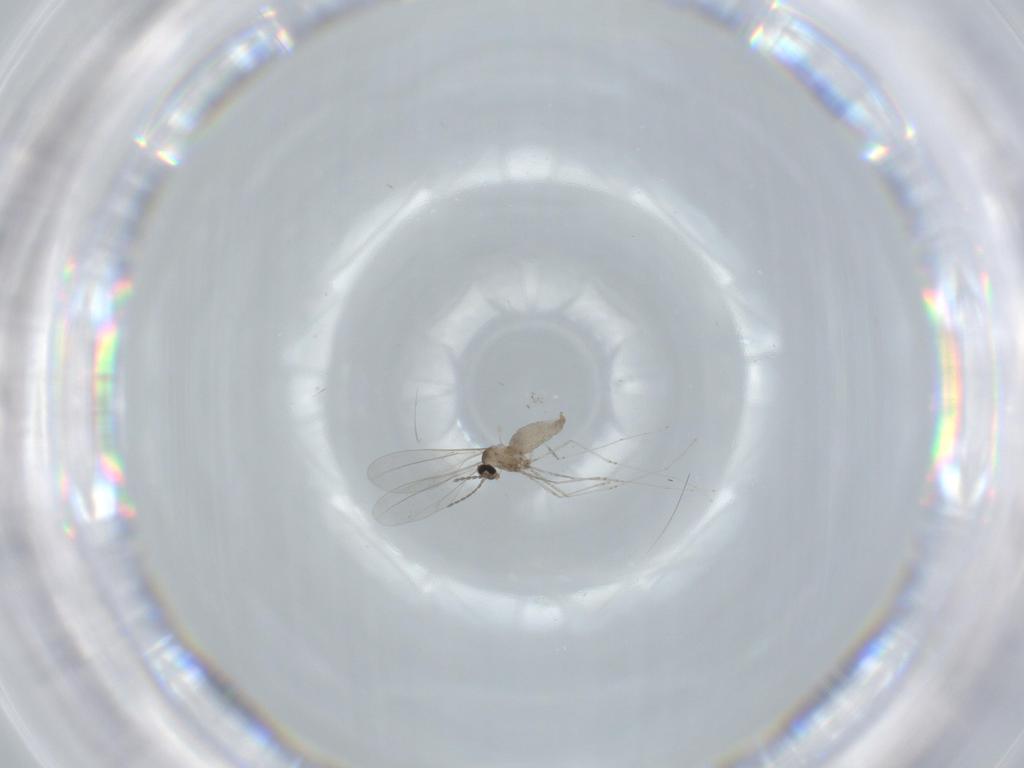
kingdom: Animalia
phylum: Arthropoda
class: Insecta
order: Diptera
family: Cecidomyiidae
